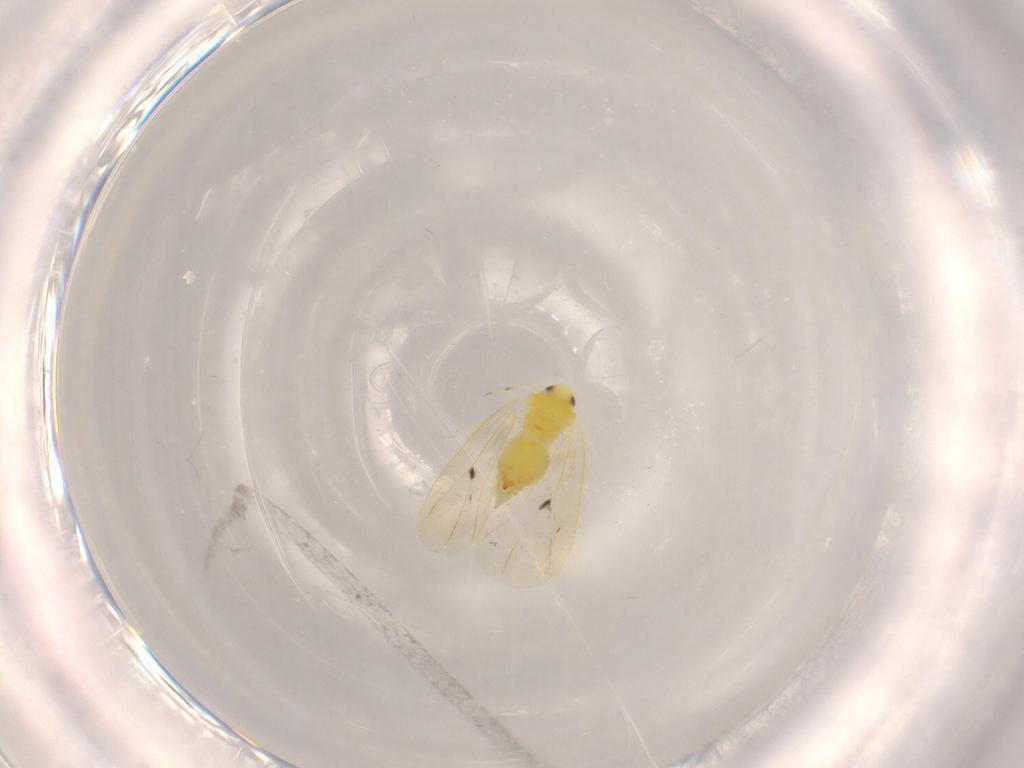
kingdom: Animalia
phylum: Arthropoda
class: Insecta
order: Hemiptera
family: Aleyrodidae
